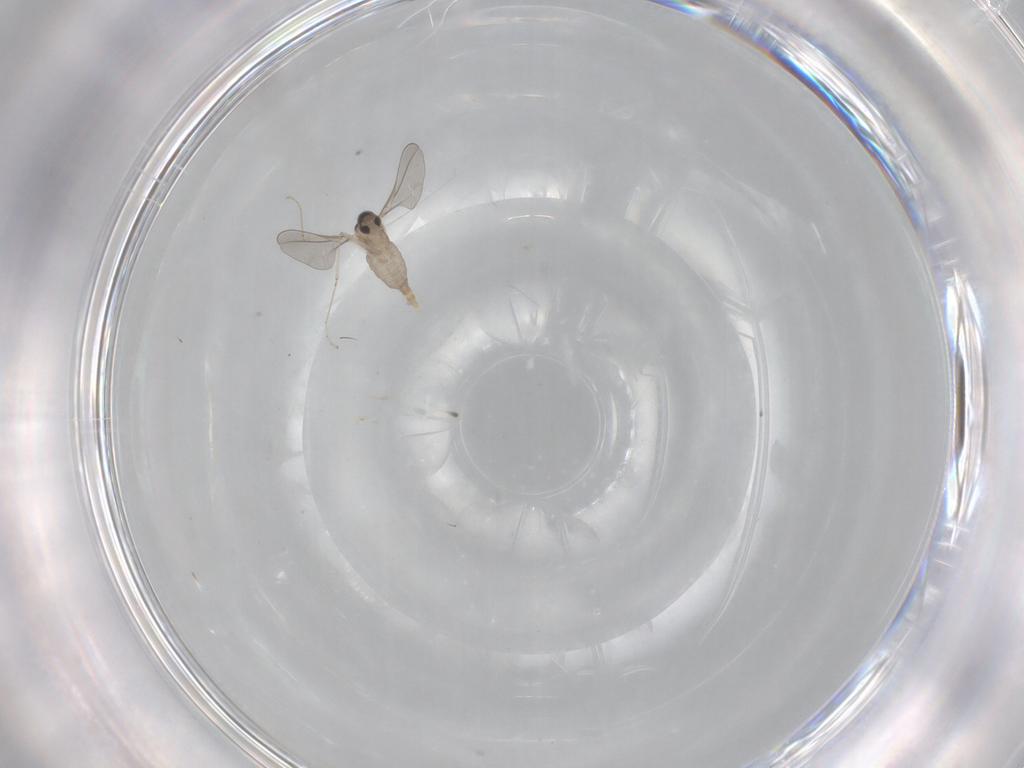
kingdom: Animalia
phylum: Arthropoda
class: Insecta
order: Diptera
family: Cecidomyiidae
